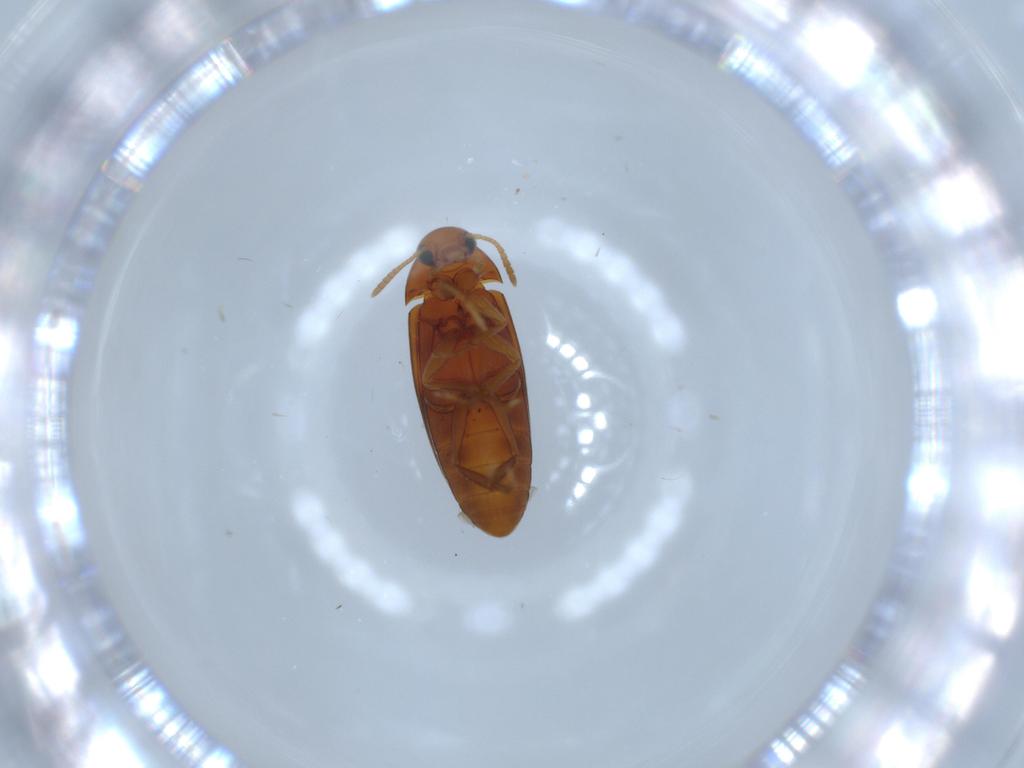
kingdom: Animalia
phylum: Arthropoda
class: Insecta
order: Coleoptera
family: Scraptiidae
